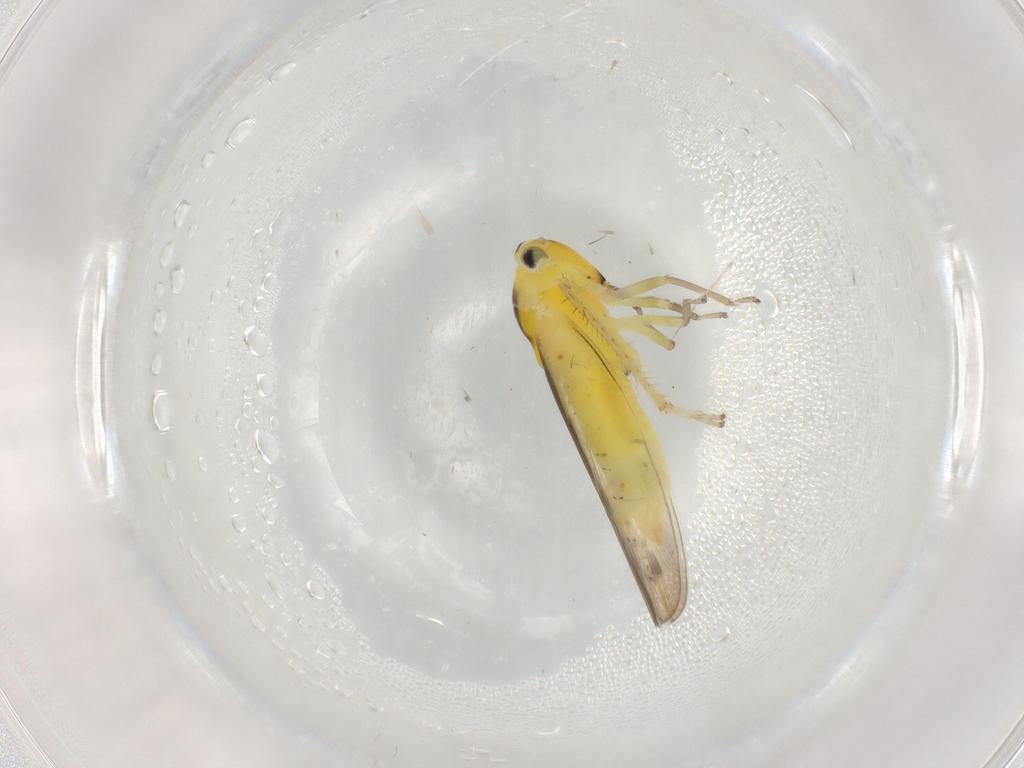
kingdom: Animalia
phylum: Arthropoda
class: Insecta
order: Hemiptera
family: Cicadellidae
